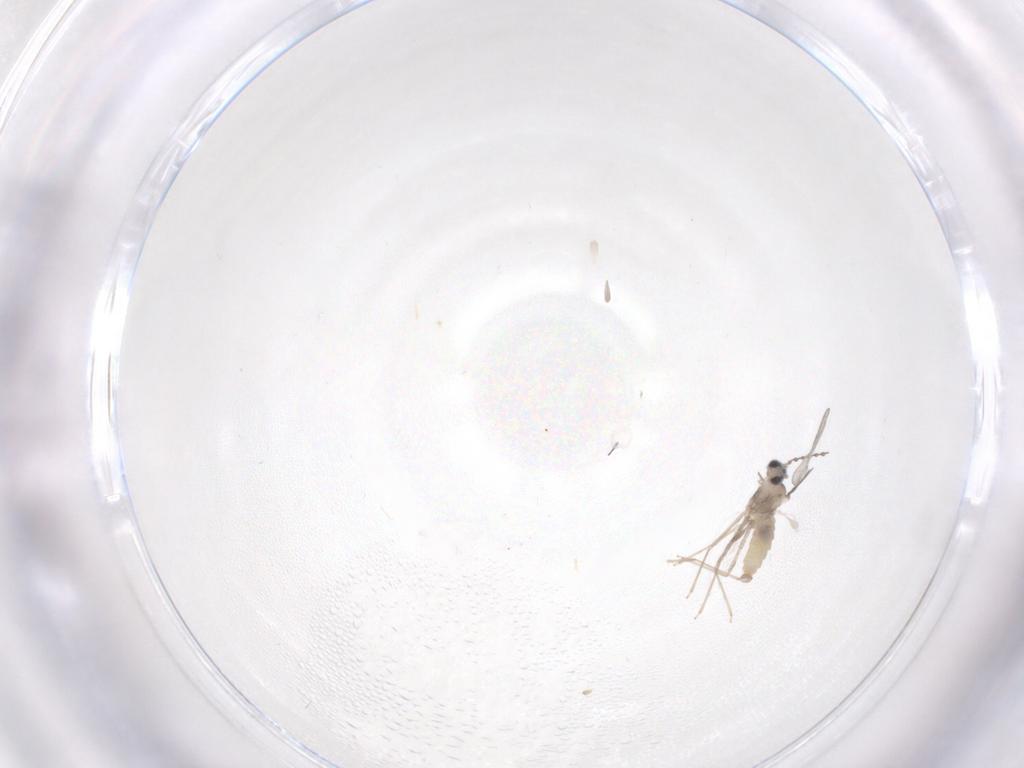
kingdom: Animalia
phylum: Arthropoda
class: Insecta
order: Diptera
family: Cecidomyiidae
